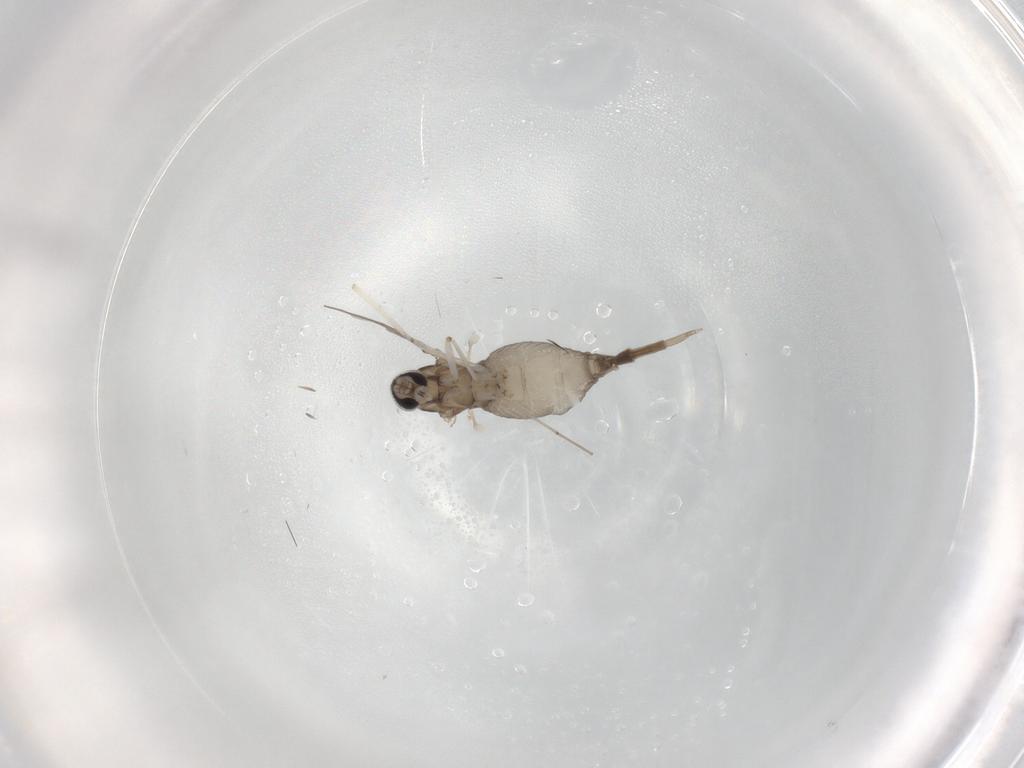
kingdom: Animalia
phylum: Arthropoda
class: Insecta
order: Diptera
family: Cecidomyiidae
